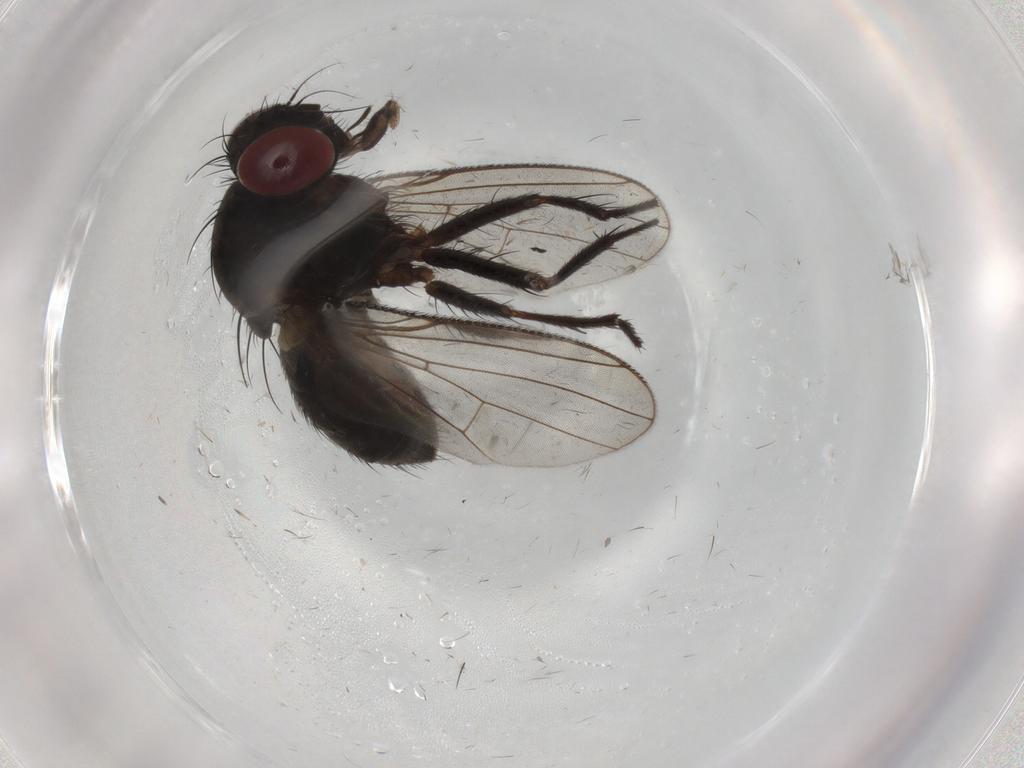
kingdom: Animalia
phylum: Arthropoda
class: Insecta
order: Diptera
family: Muscidae
